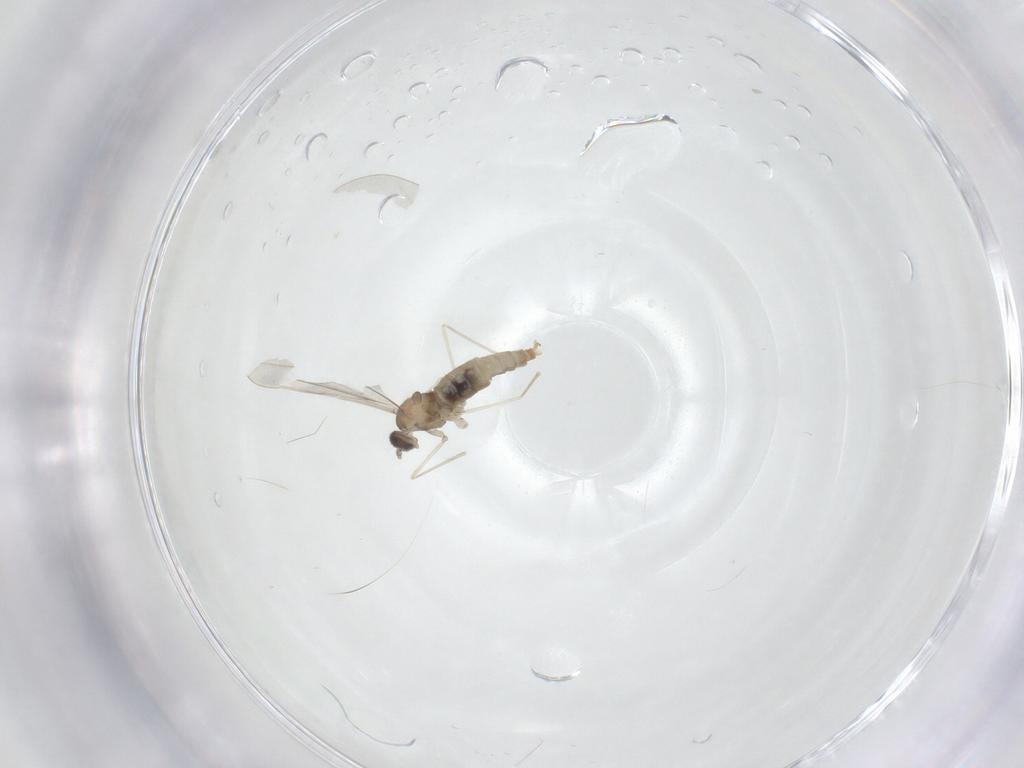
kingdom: Animalia
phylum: Arthropoda
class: Insecta
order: Diptera
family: Cecidomyiidae
